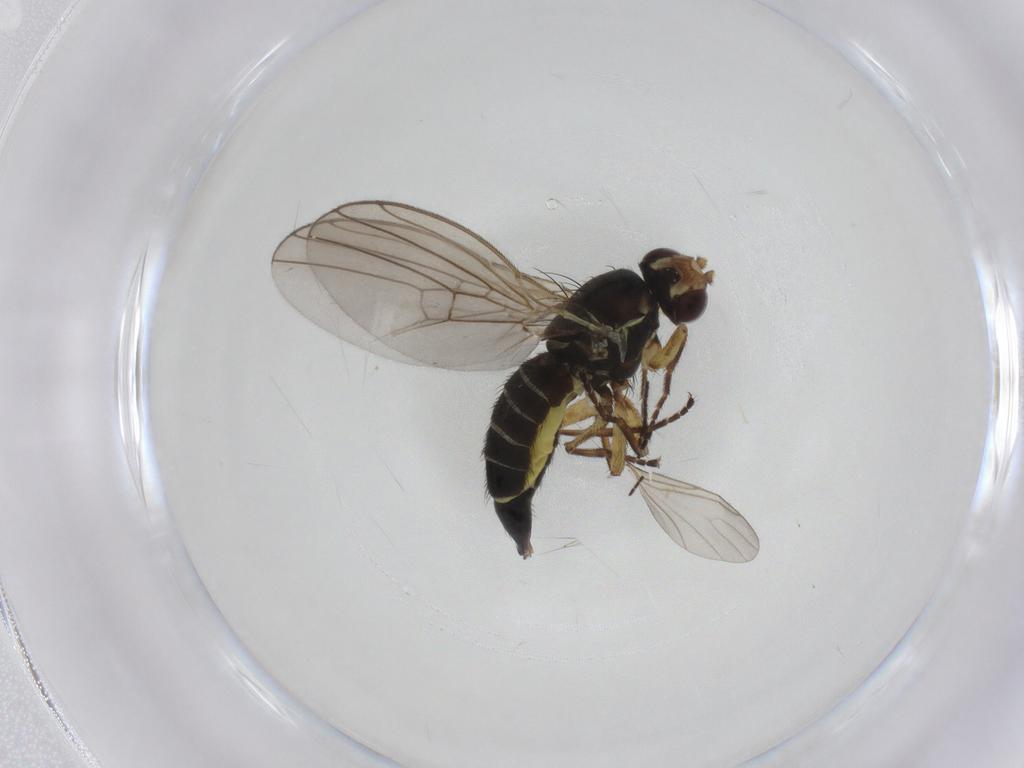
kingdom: Animalia
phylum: Arthropoda
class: Insecta
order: Diptera
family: Agromyzidae
